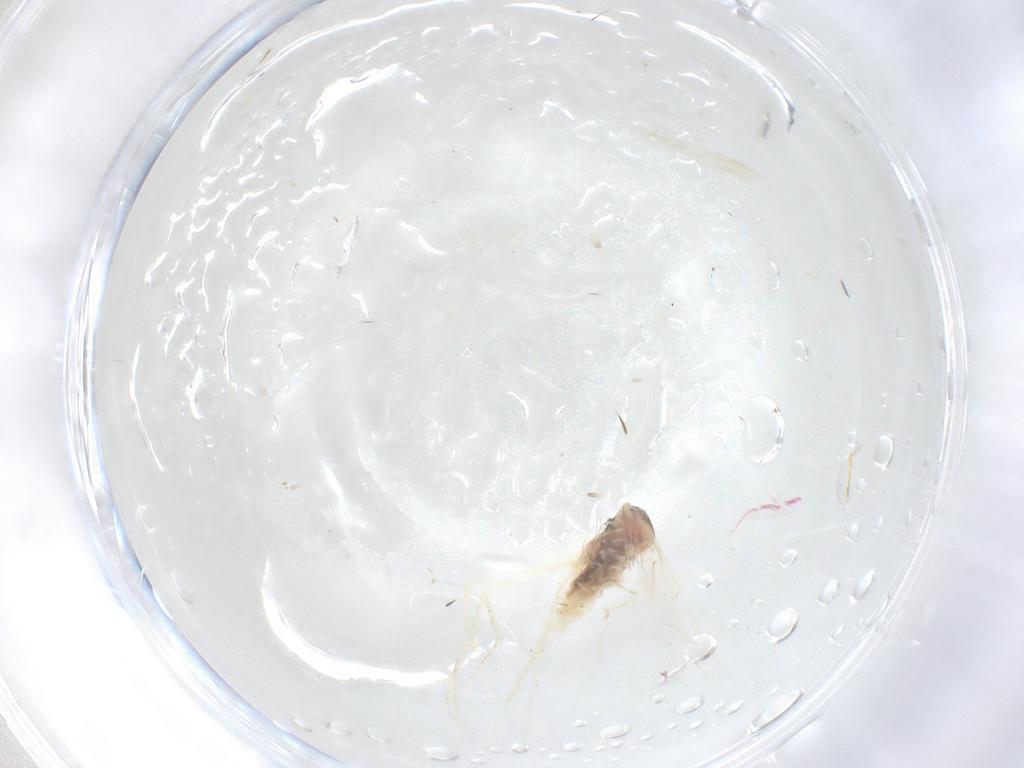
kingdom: Animalia
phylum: Arthropoda
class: Insecta
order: Diptera
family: Cecidomyiidae
